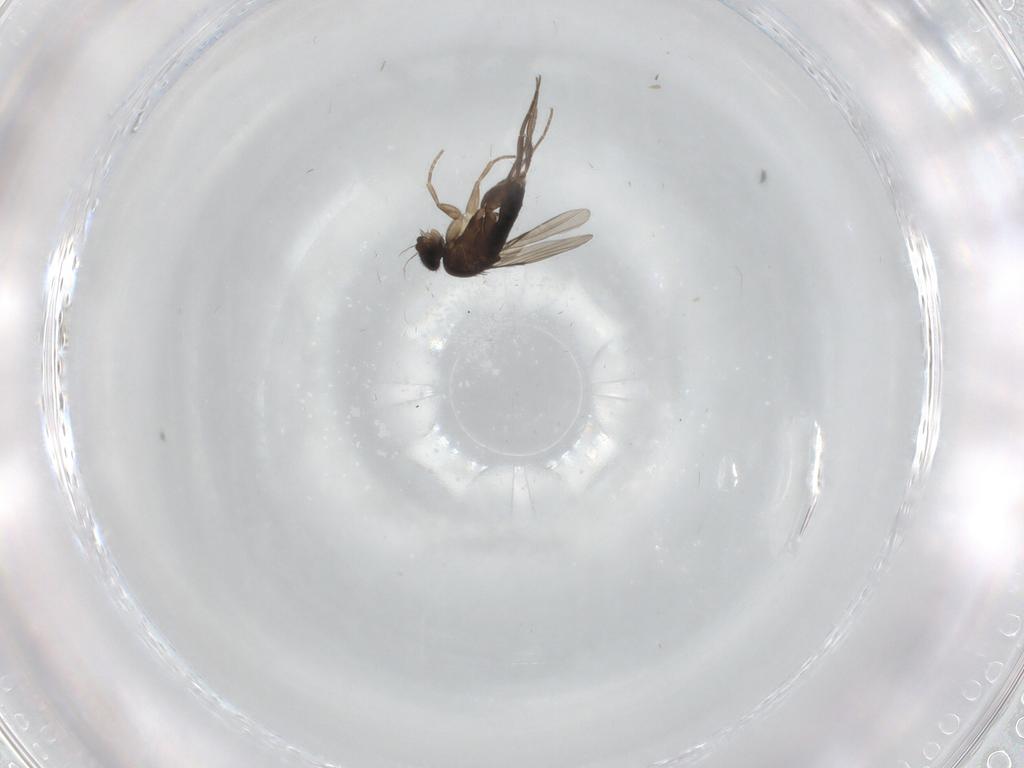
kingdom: Animalia
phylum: Arthropoda
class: Insecta
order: Diptera
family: Phoridae
